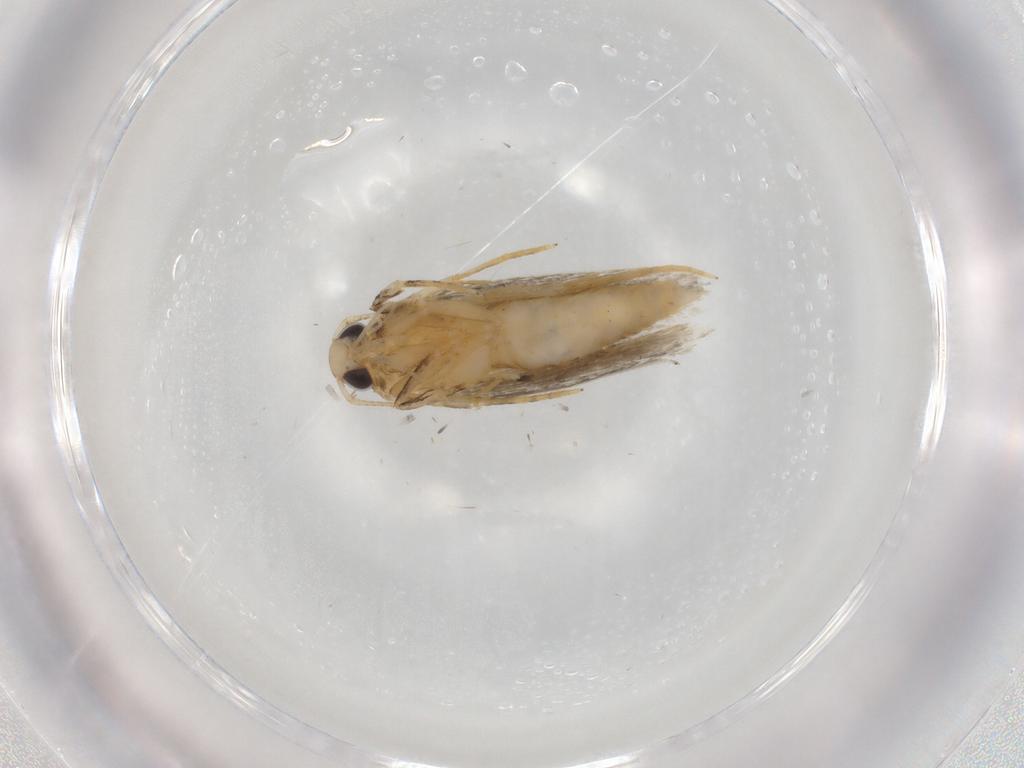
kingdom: Animalia
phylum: Arthropoda
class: Insecta
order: Lepidoptera
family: Autostichidae
